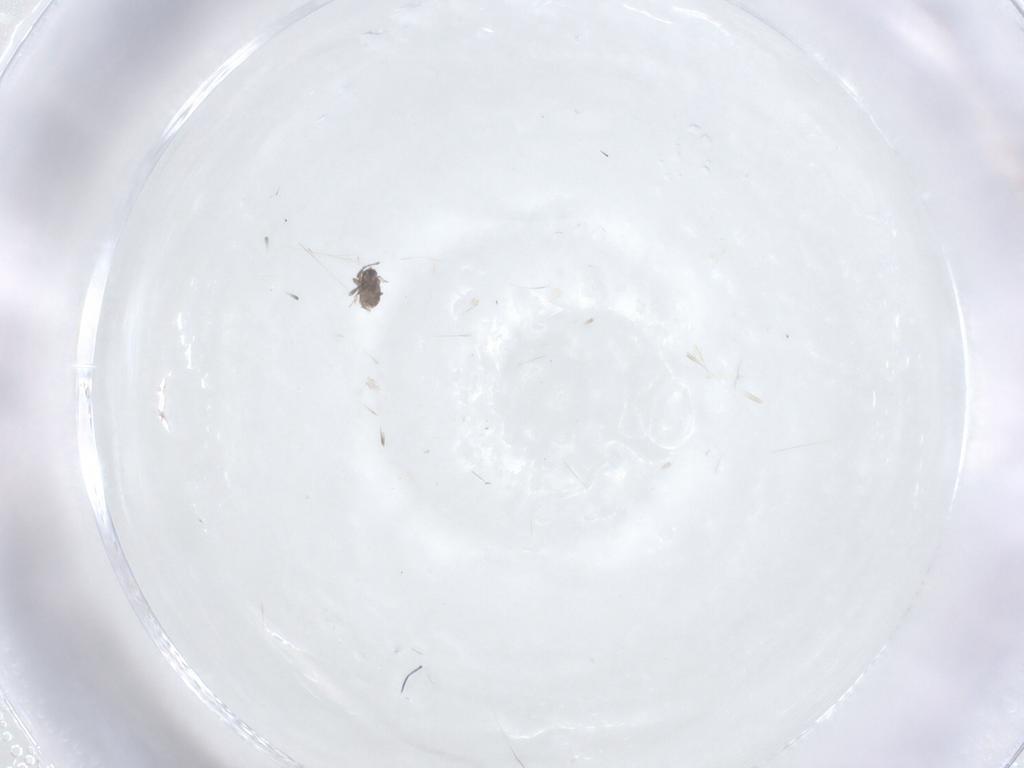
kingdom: Animalia
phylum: Arthropoda
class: Insecta
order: Hymenoptera
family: Mymaridae
